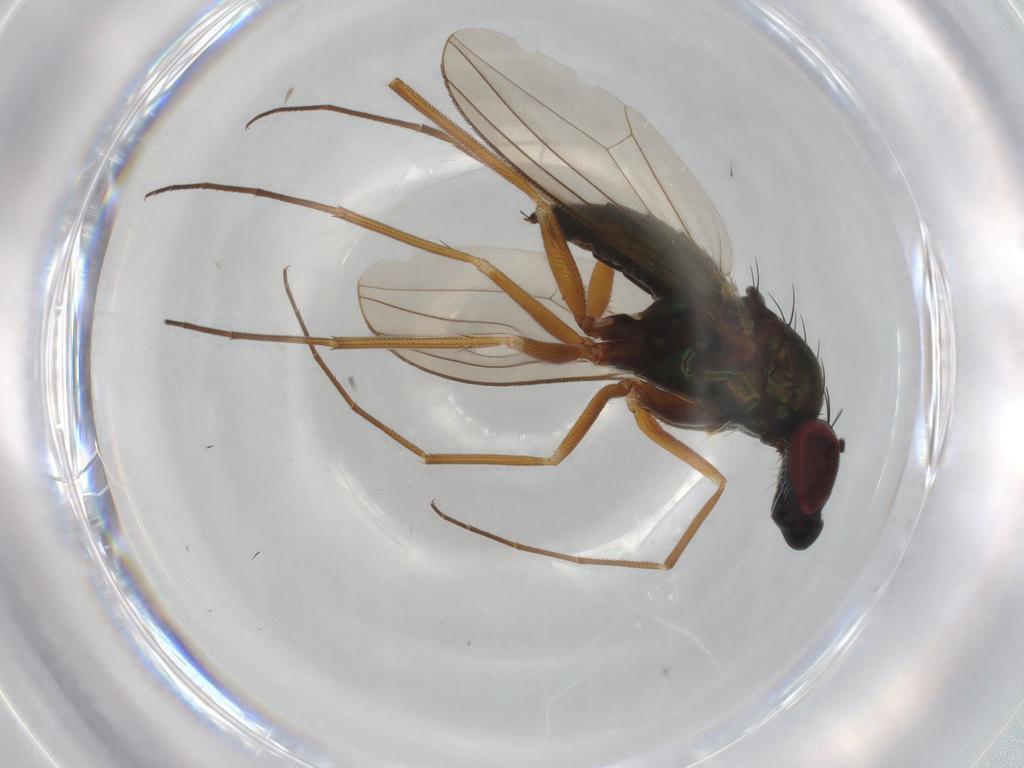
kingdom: Animalia
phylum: Arthropoda
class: Insecta
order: Diptera
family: Dolichopodidae
